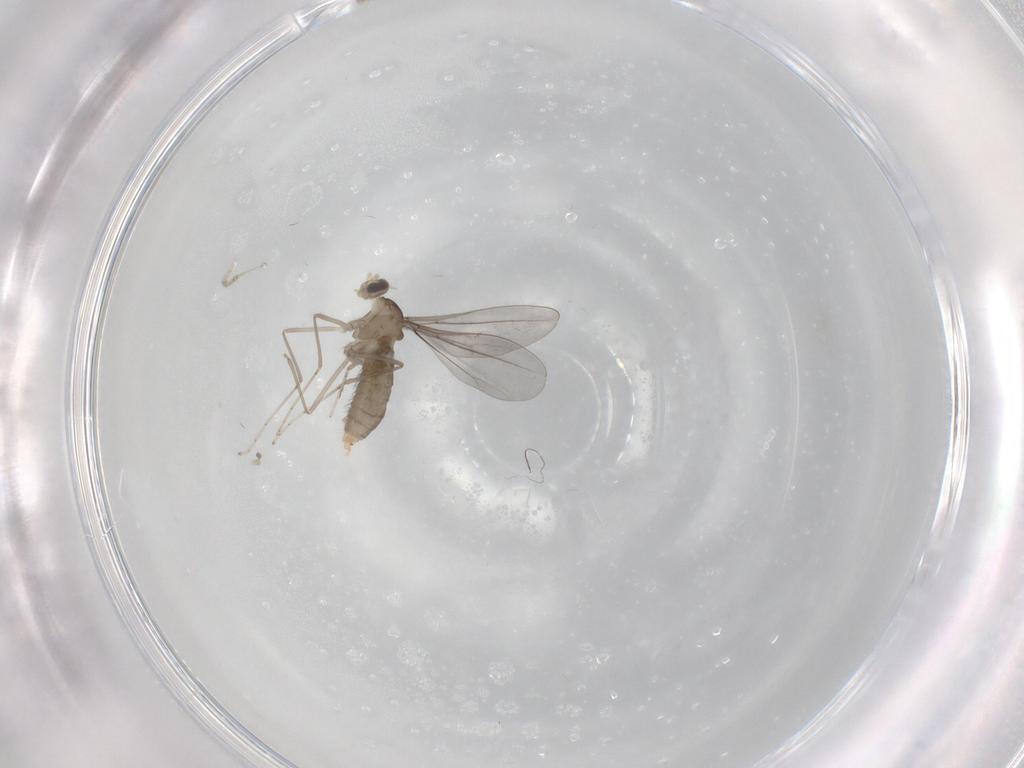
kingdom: Animalia
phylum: Arthropoda
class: Insecta
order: Diptera
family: Cecidomyiidae
